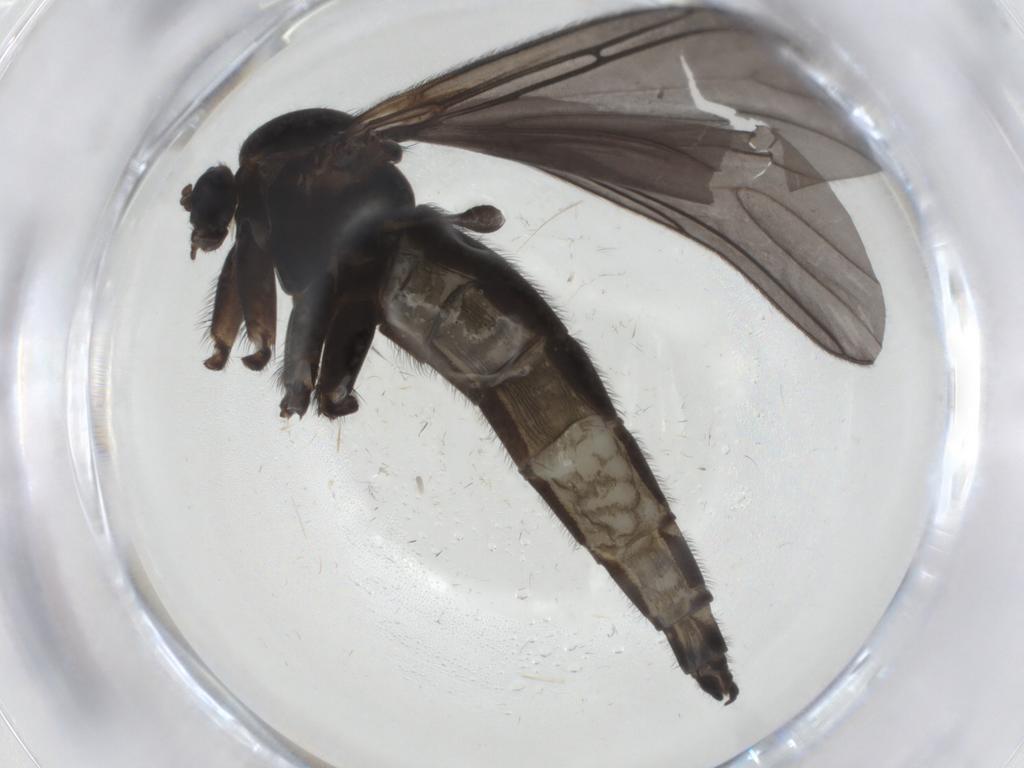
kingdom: Animalia
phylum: Arthropoda
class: Insecta
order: Diptera
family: Sciaridae
